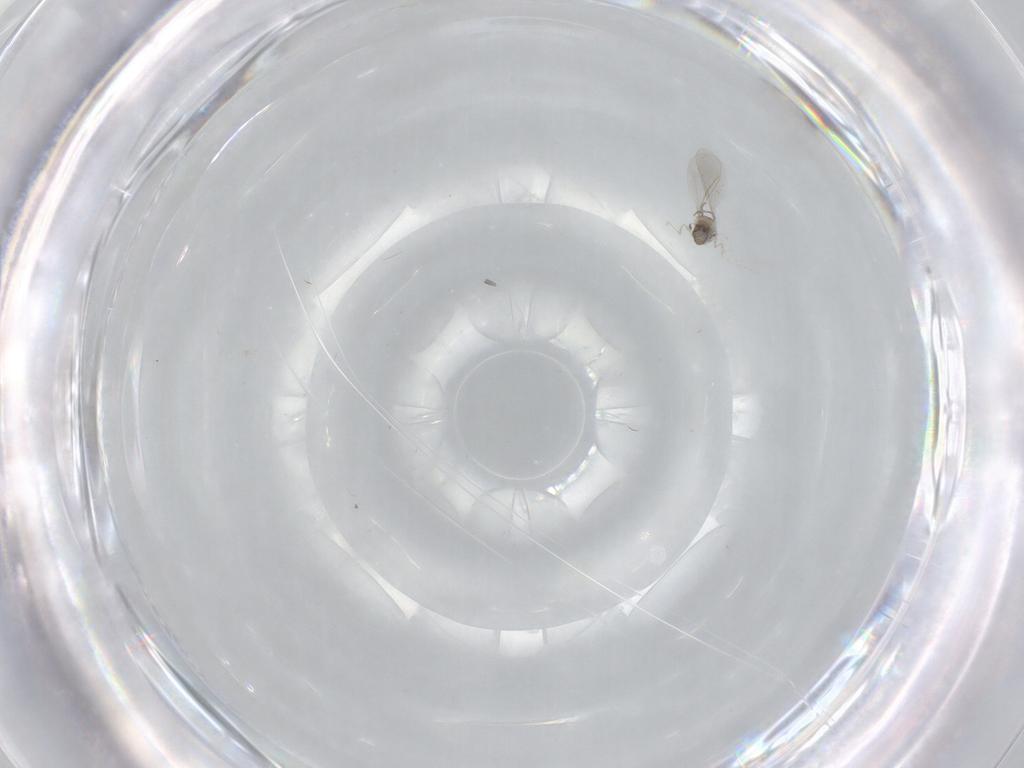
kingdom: Animalia
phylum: Arthropoda
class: Insecta
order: Diptera
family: Cecidomyiidae
